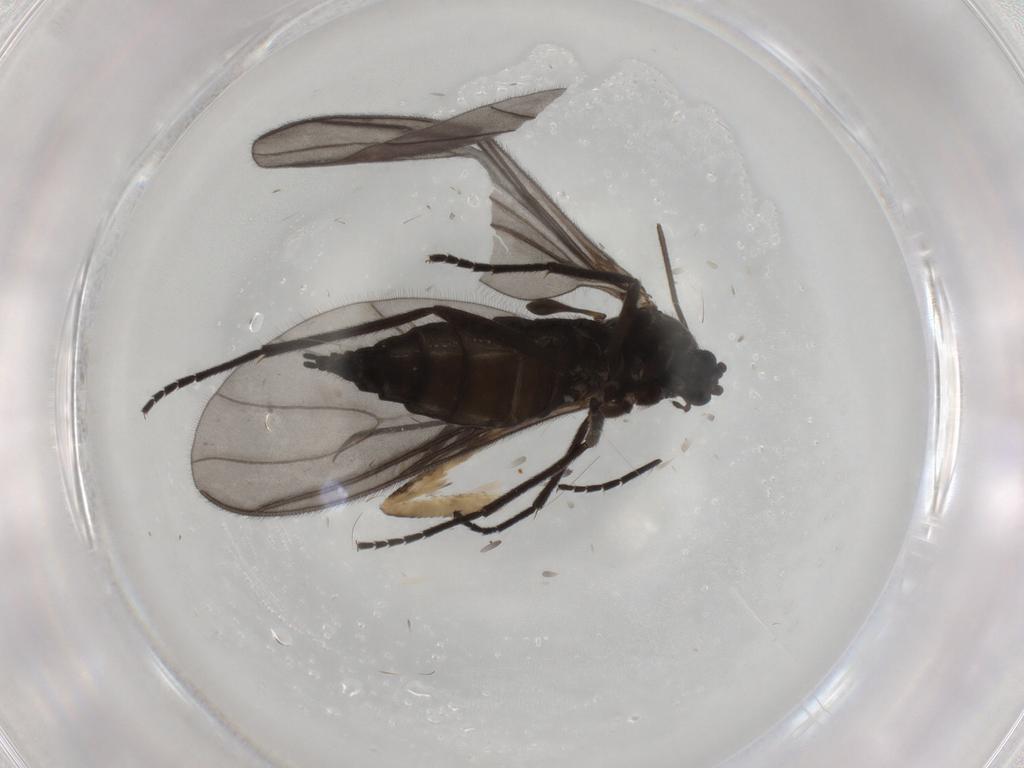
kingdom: Animalia
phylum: Arthropoda
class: Insecta
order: Diptera
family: Sciaridae
